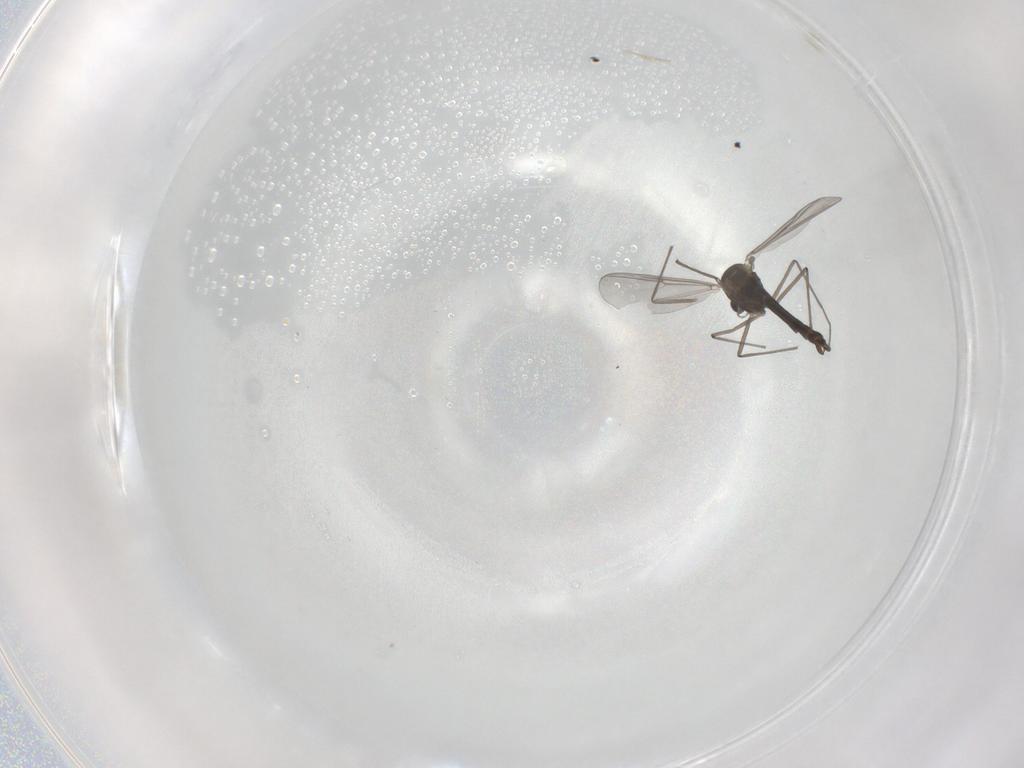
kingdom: Animalia
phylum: Arthropoda
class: Insecta
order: Diptera
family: Chironomidae
